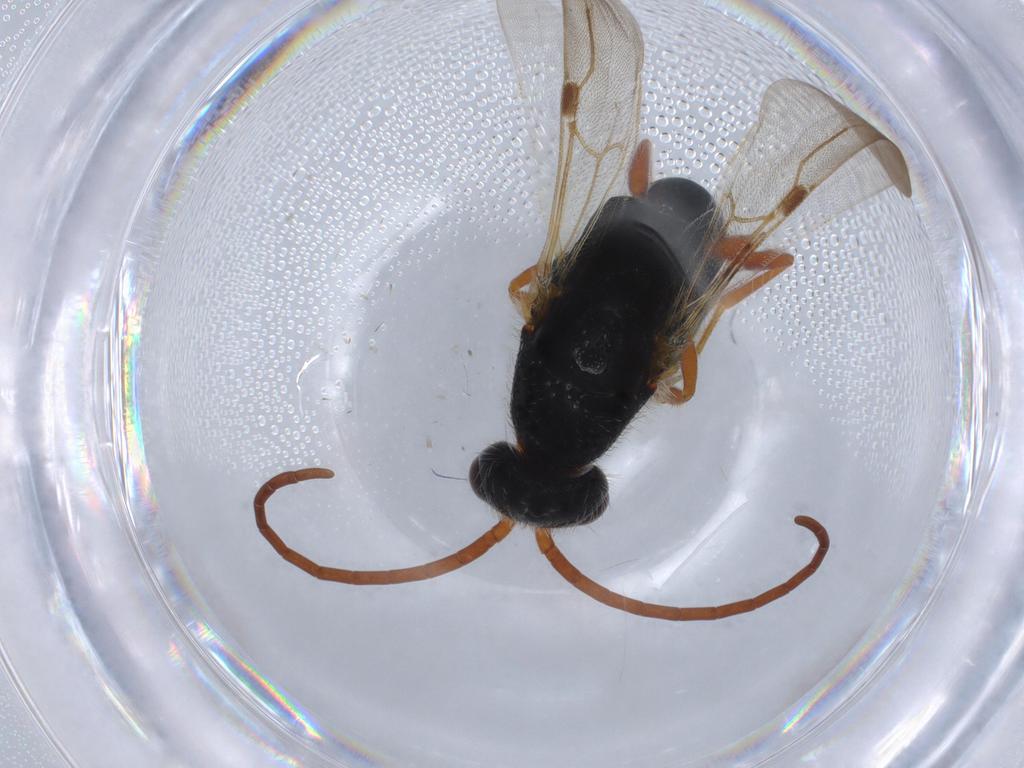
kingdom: Animalia
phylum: Arthropoda
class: Insecta
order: Hymenoptera
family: Bethylidae
